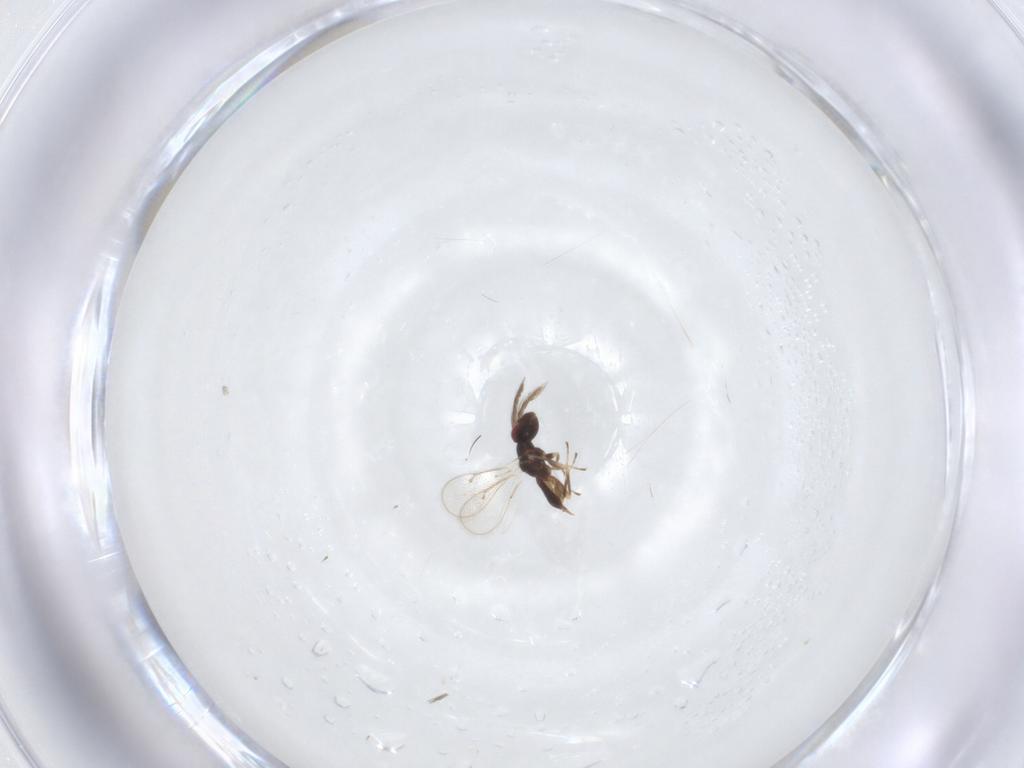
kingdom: Animalia
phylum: Arthropoda
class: Insecta
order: Hymenoptera
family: Eulophidae
